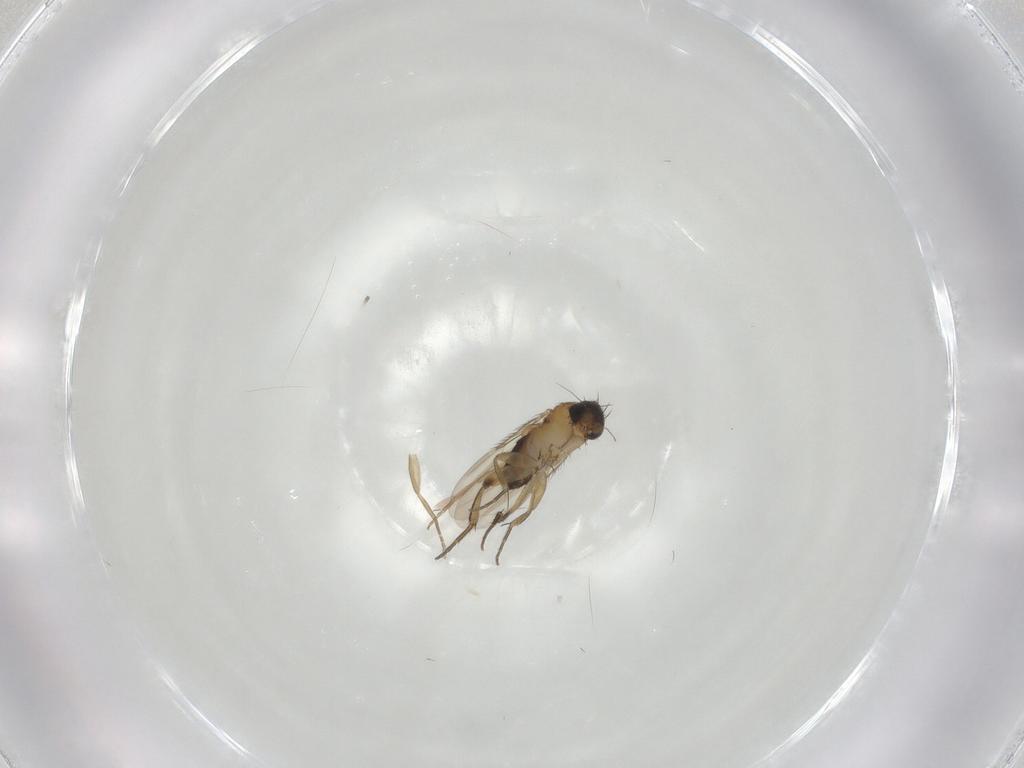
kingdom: Animalia
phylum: Arthropoda
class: Insecta
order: Diptera
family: Phoridae
